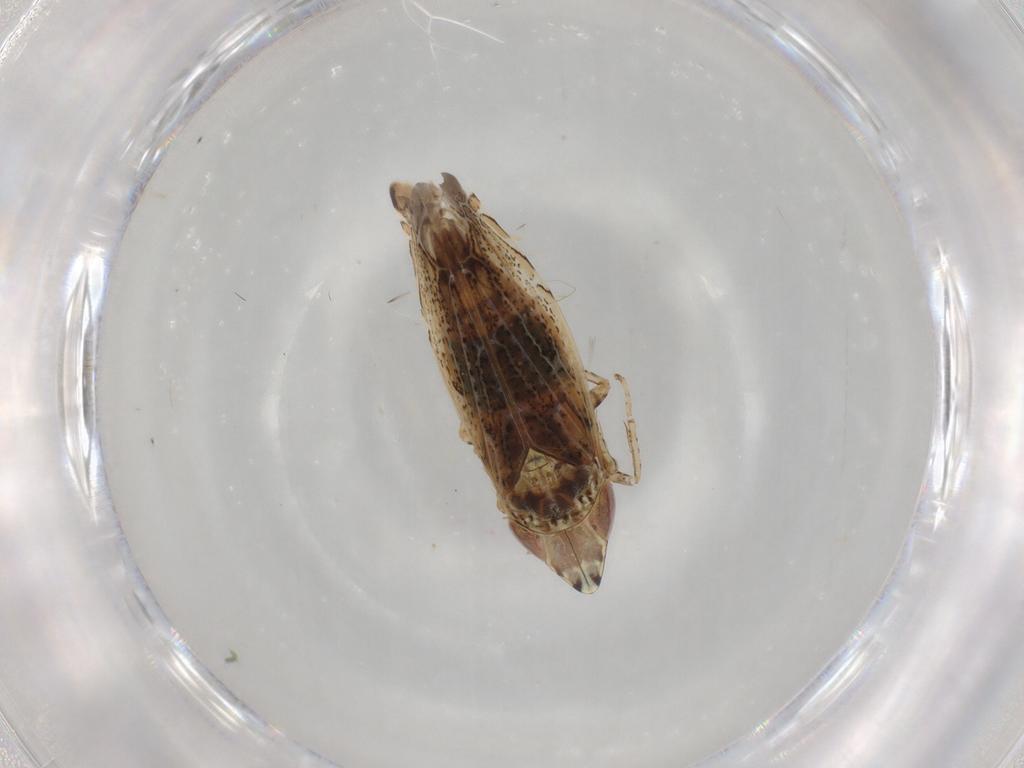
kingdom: Animalia
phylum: Arthropoda
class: Insecta
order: Hemiptera
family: Cicadellidae
